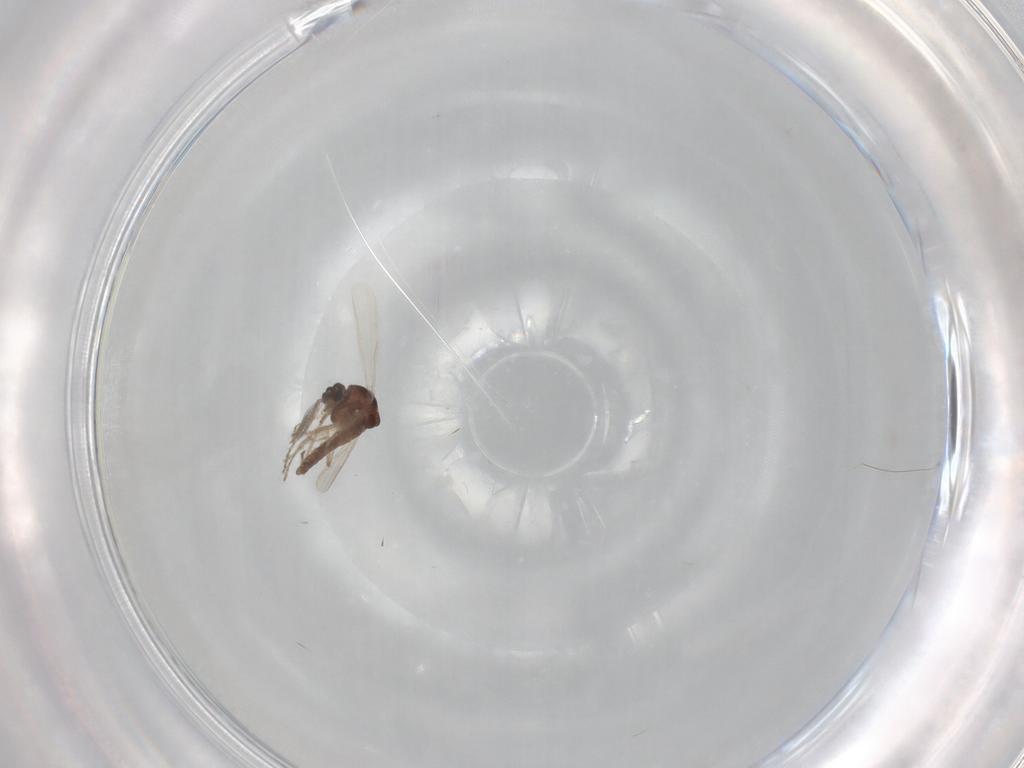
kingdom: Animalia
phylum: Arthropoda
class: Insecta
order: Diptera
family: Ceratopogonidae
